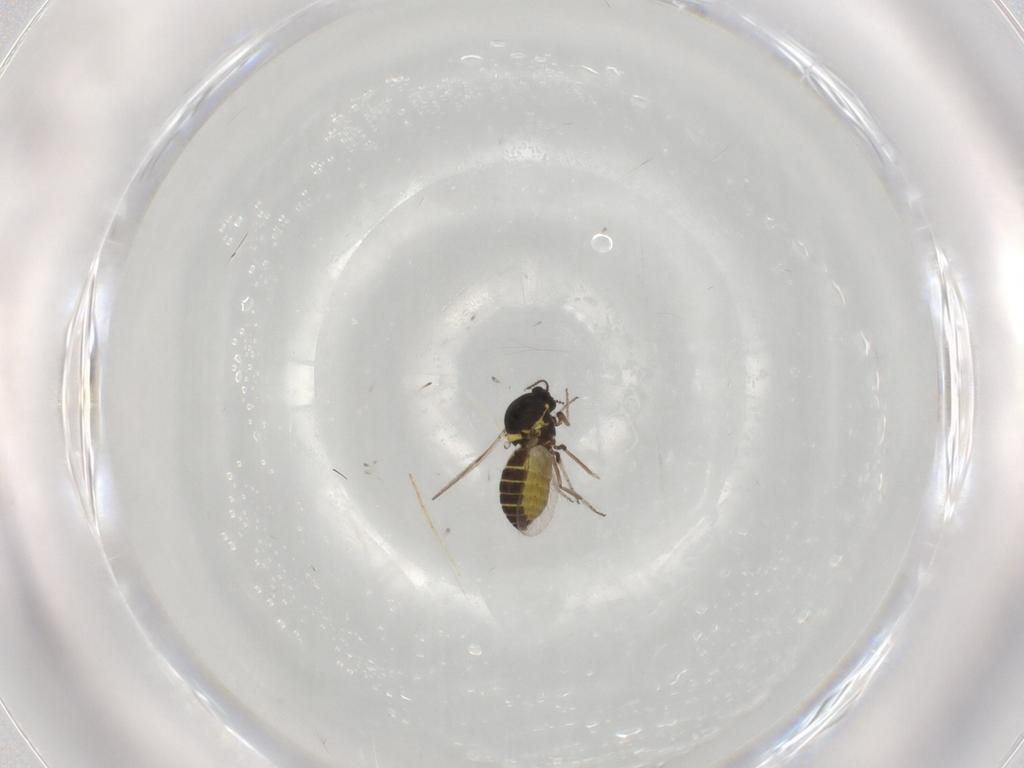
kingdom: Animalia
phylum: Arthropoda
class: Insecta
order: Diptera
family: Ceratopogonidae
